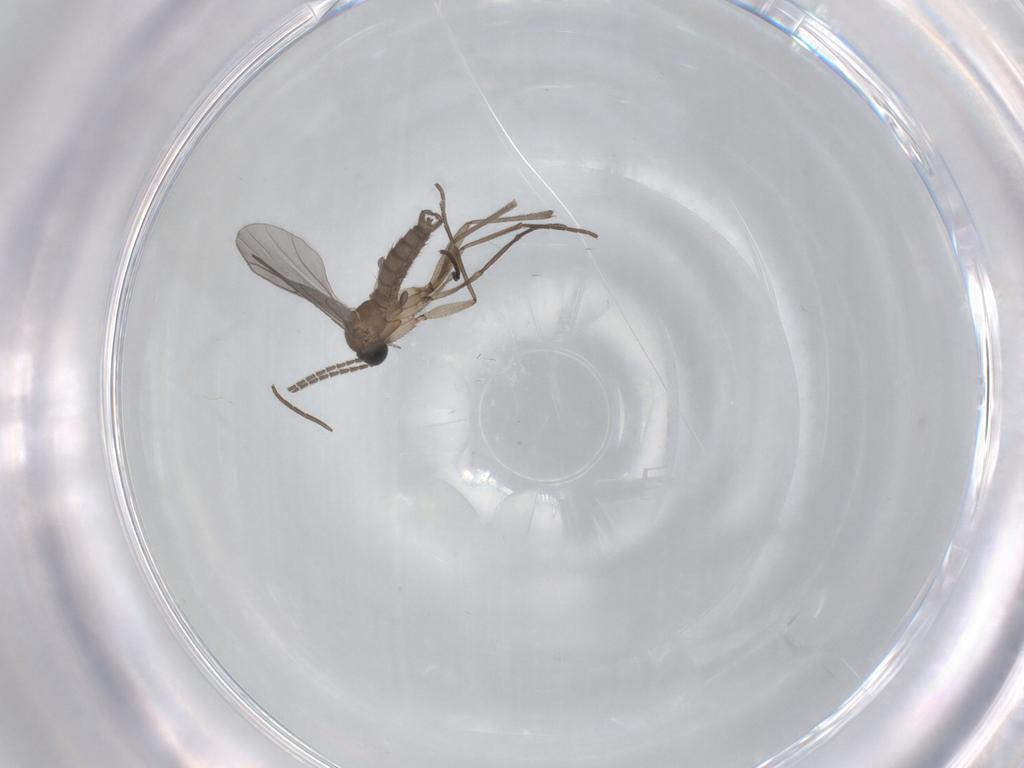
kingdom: Animalia
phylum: Arthropoda
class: Insecta
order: Diptera
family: Sciaridae
